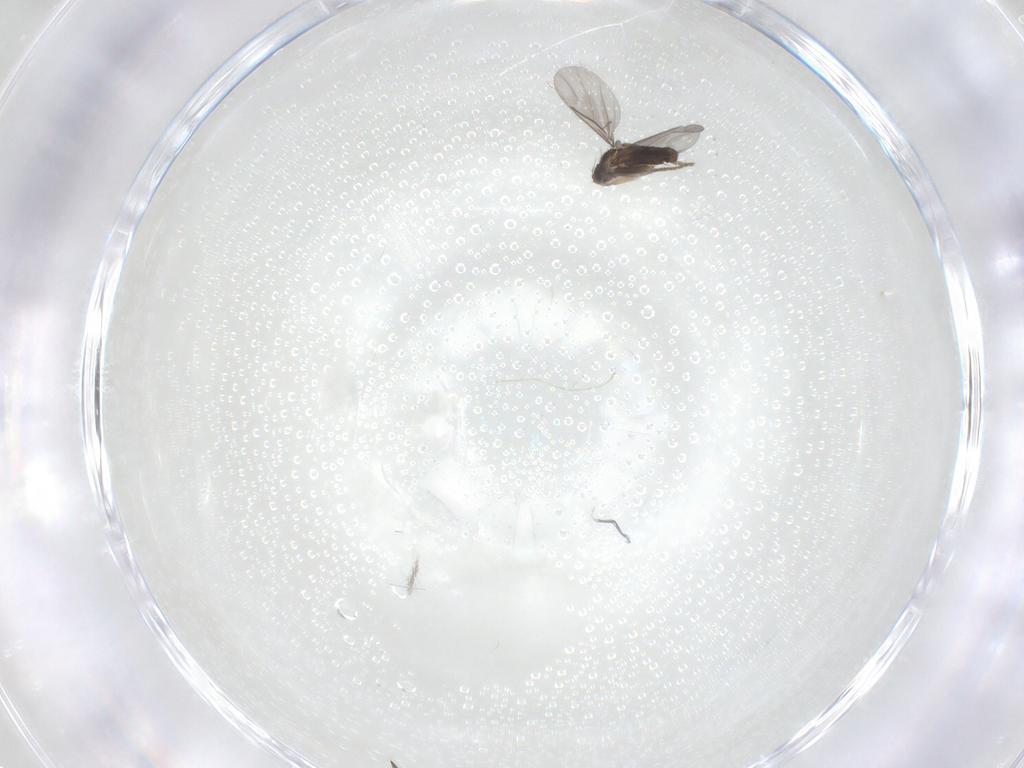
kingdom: Animalia
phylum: Arthropoda
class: Insecta
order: Diptera
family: Chironomidae
